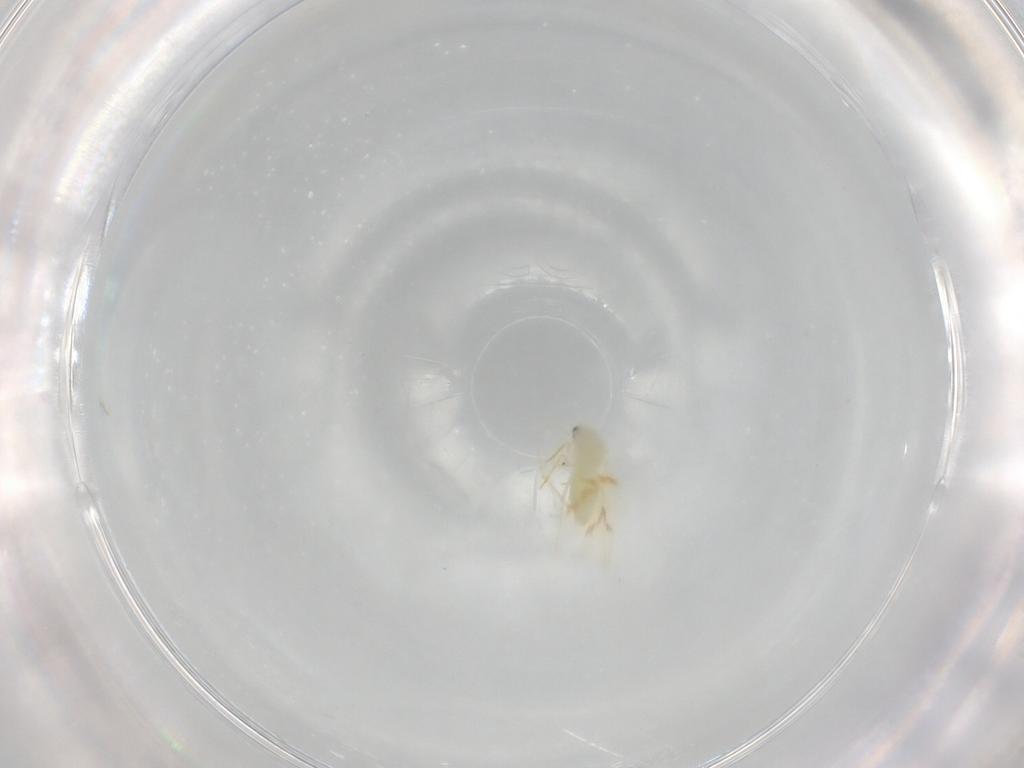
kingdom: Animalia
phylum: Arthropoda
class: Insecta
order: Hemiptera
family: Aleyrodidae
